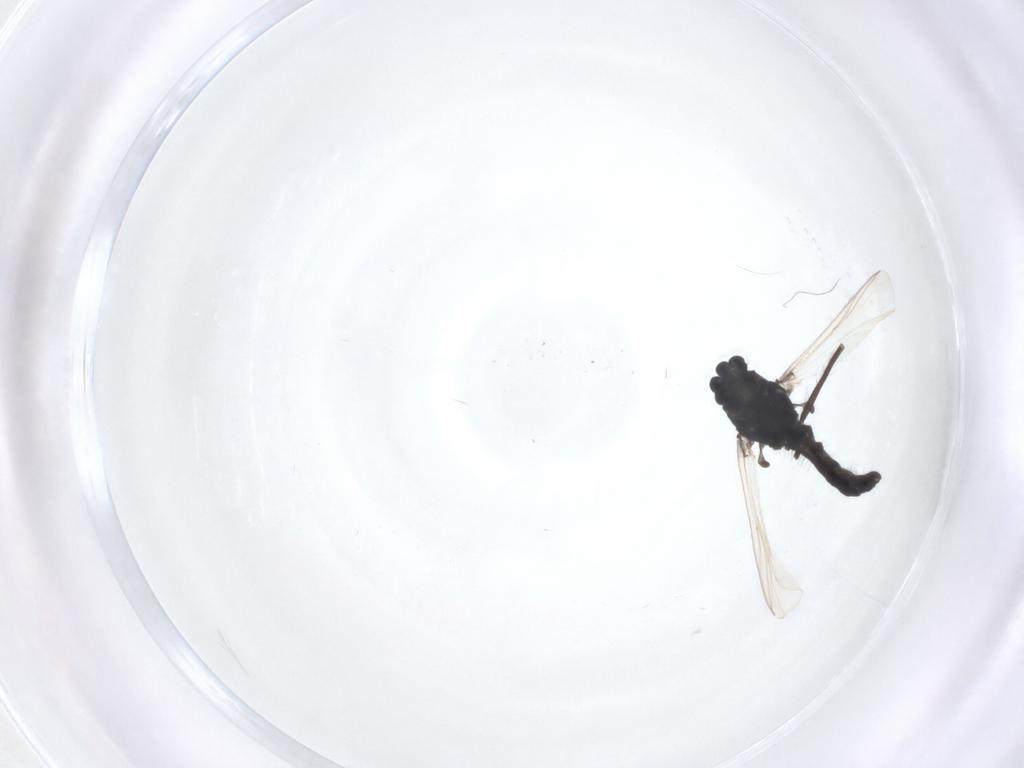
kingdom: Animalia
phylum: Arthropoda
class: Insecta
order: Diptera
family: Chironomidae
